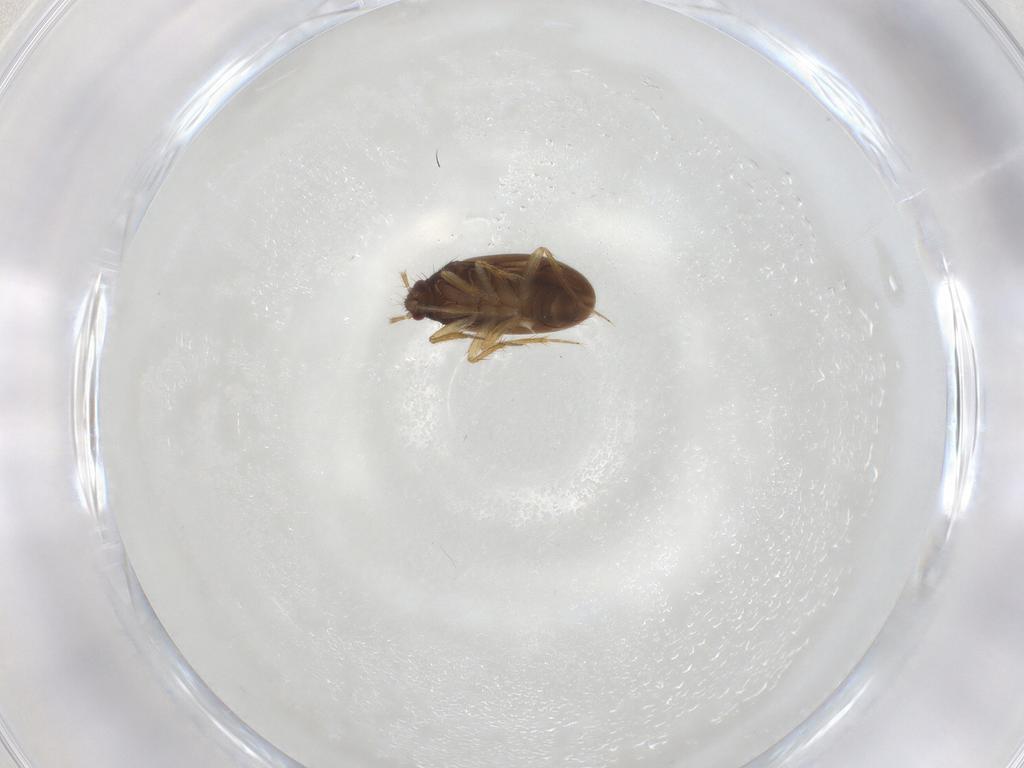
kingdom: Animalia
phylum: Arthropoda
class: Insecta
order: Hemiptera
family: Ceratocombidae
